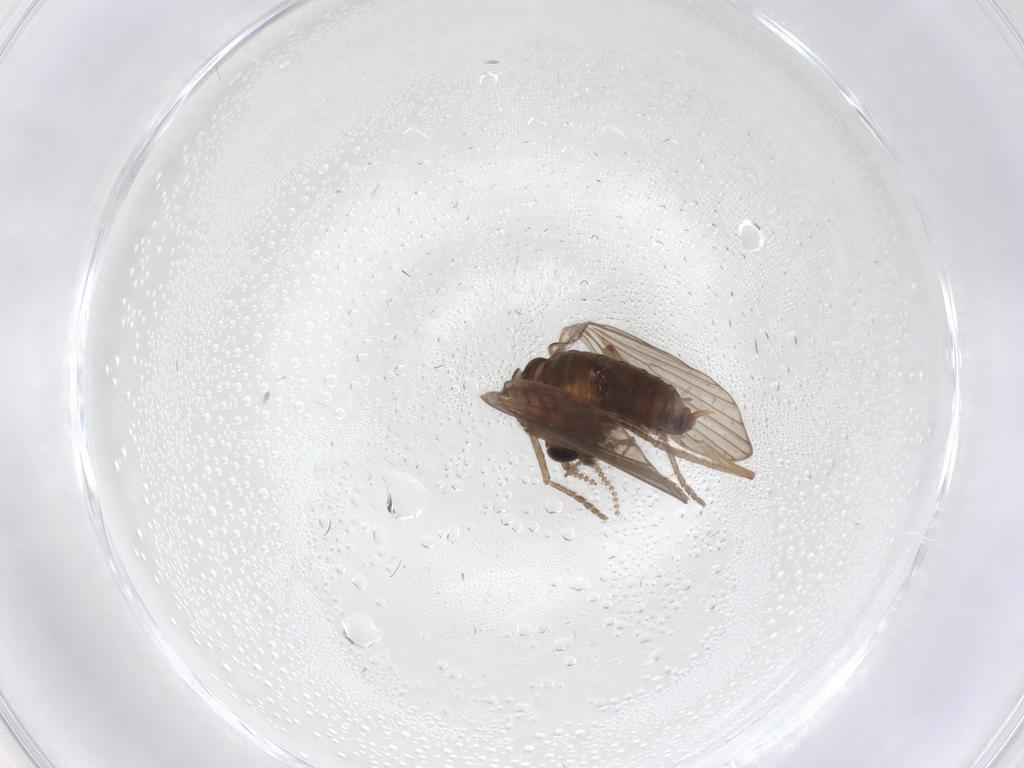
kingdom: Animalia
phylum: Arthropoda
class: Insecta
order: Diptera
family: Psychodidae
